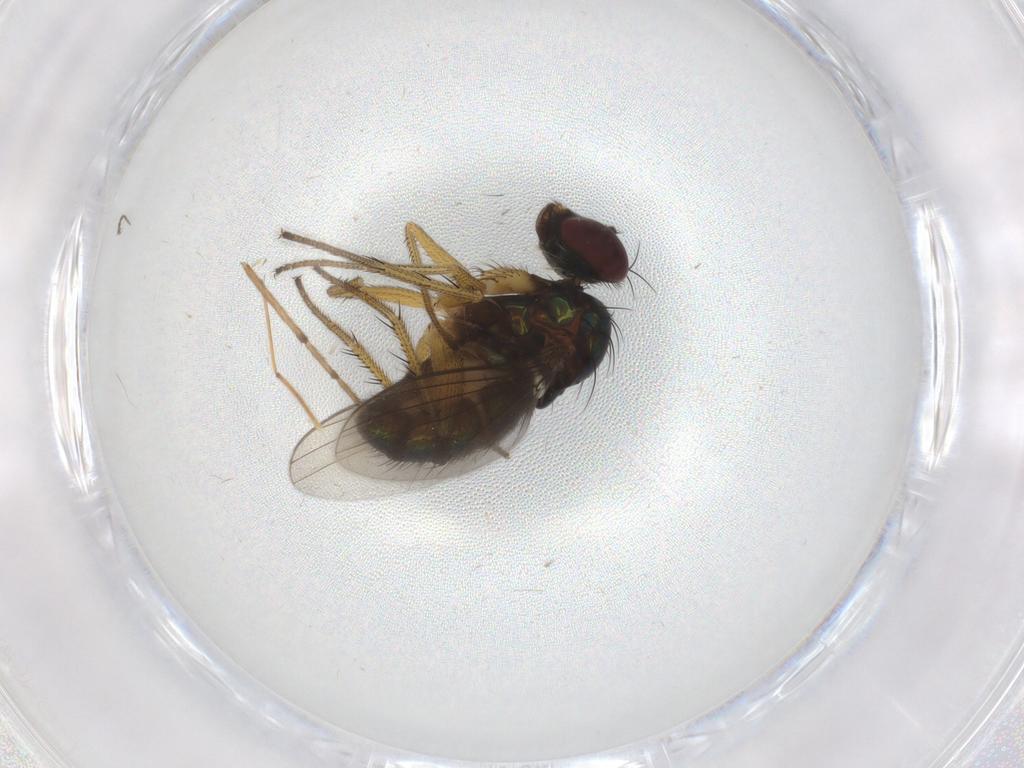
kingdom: Animalia
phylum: Arthropoda
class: Insecta
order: Diptera
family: Dolichopodidae
